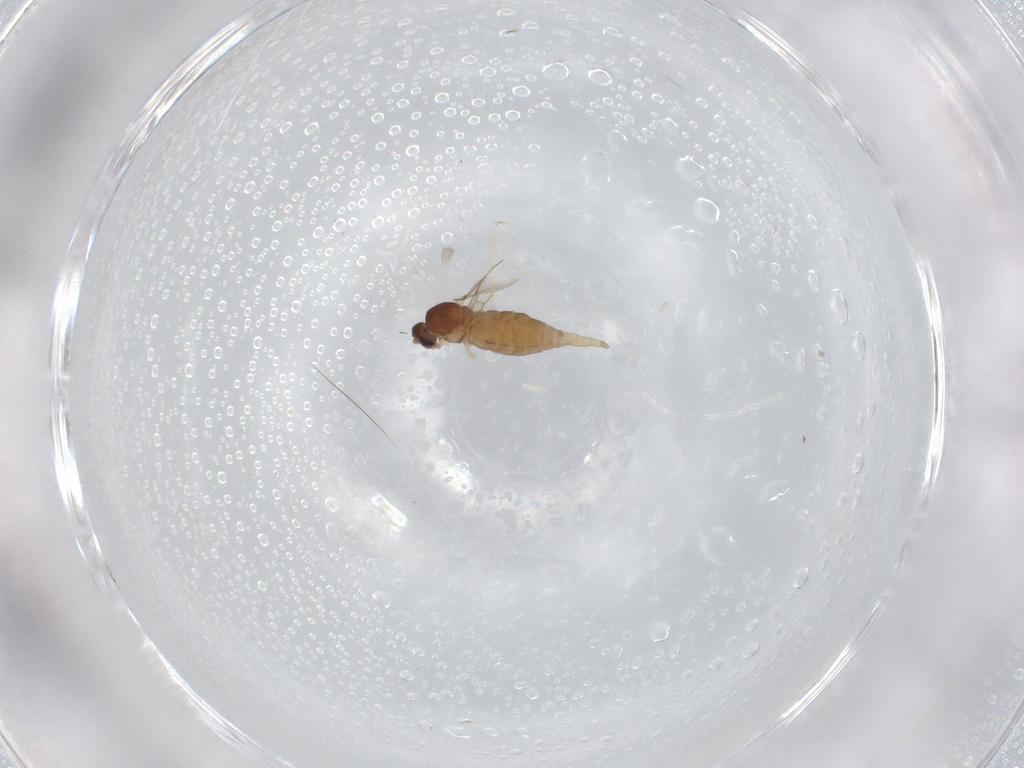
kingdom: Animalia
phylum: Arthropoda
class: Insecta
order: Diptera
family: Cecidomyiidae
